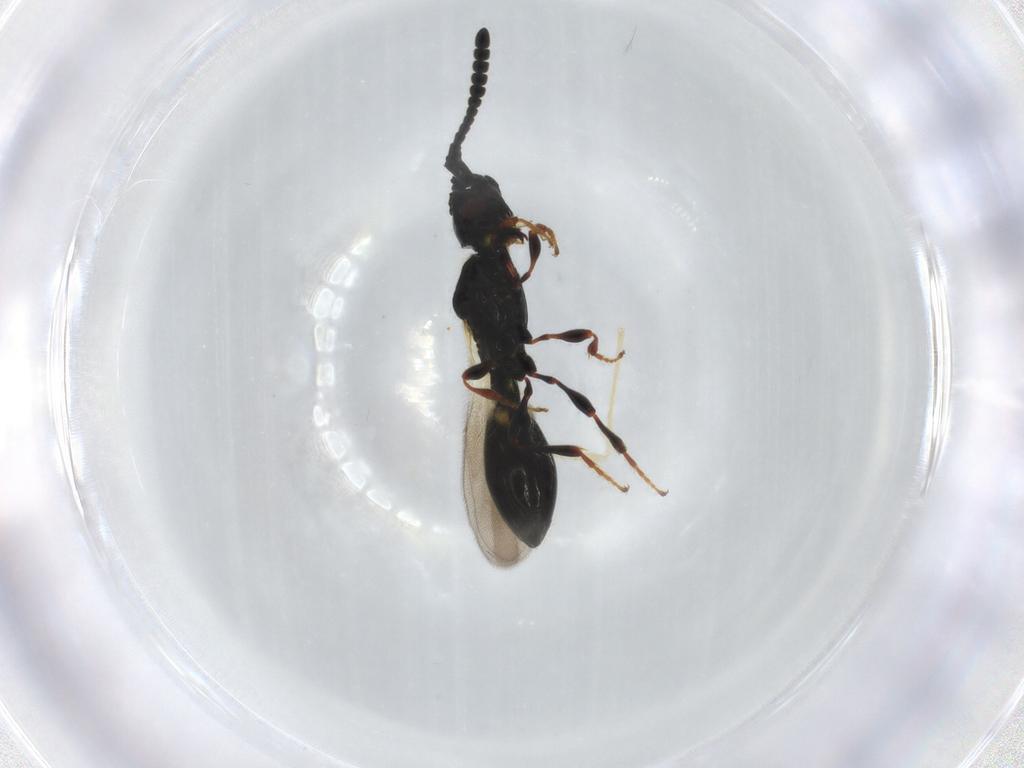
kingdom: Animalia
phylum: Arthropoda
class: Insecta
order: Hymenoptera
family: Diapriidae
